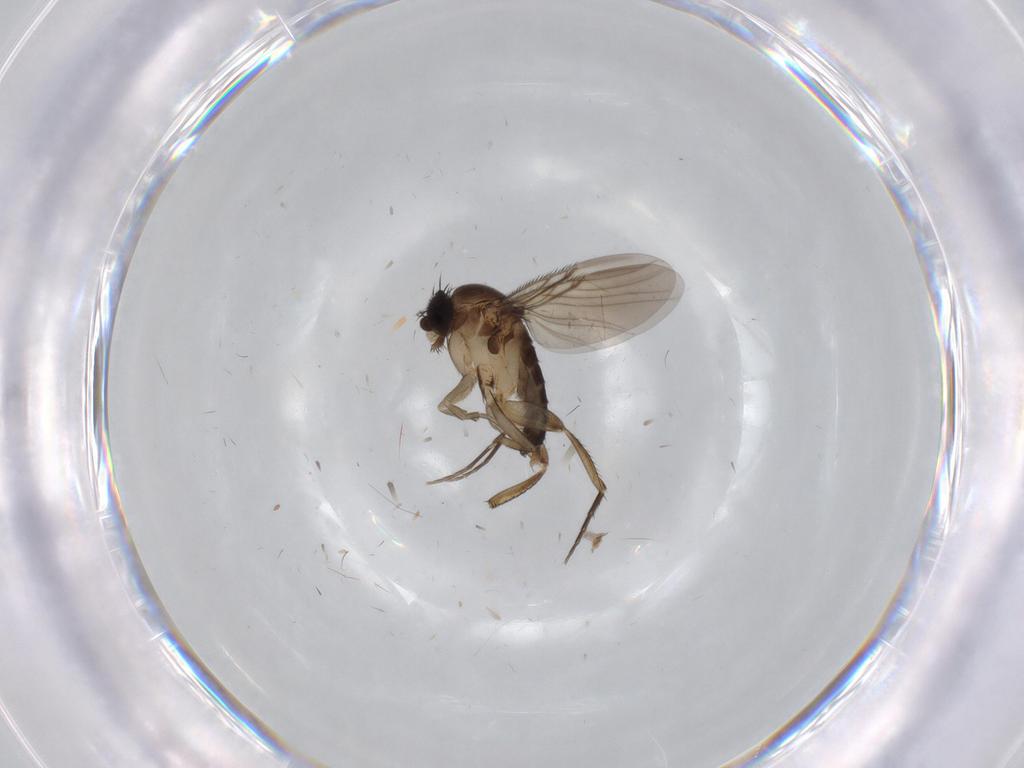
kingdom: Animalia
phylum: Arthropoda
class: Insecta
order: Diptera
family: Phoridae
